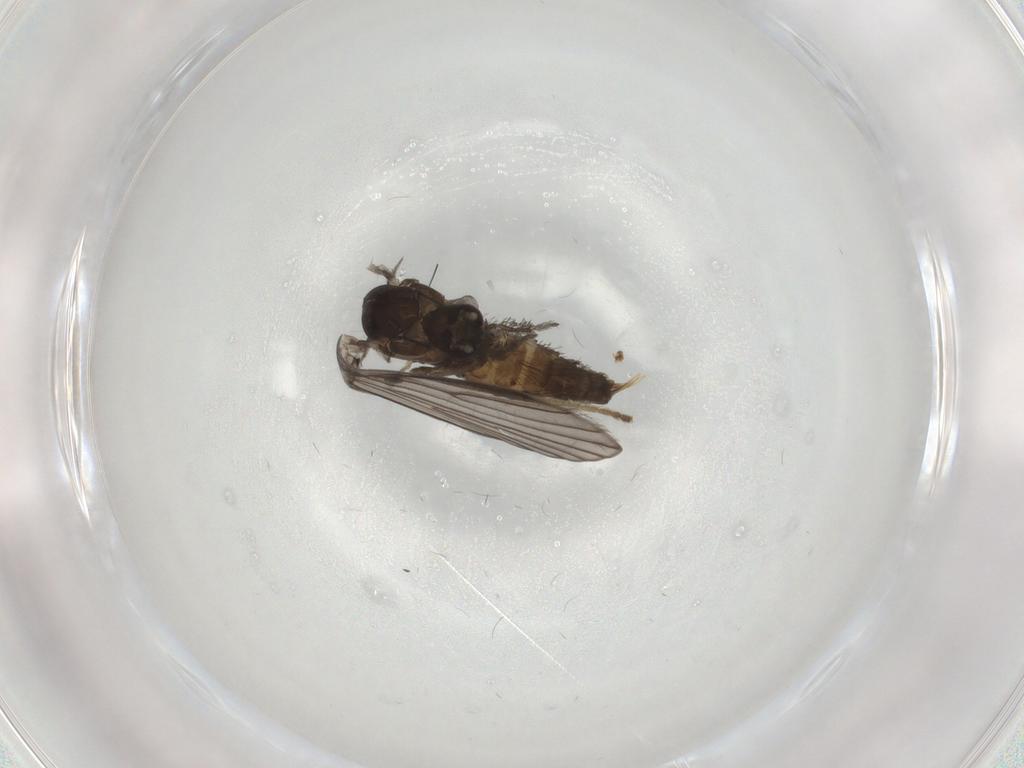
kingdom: Animalia
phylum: Arthropoda
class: Insecta
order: Diptera
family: Psychodidae
